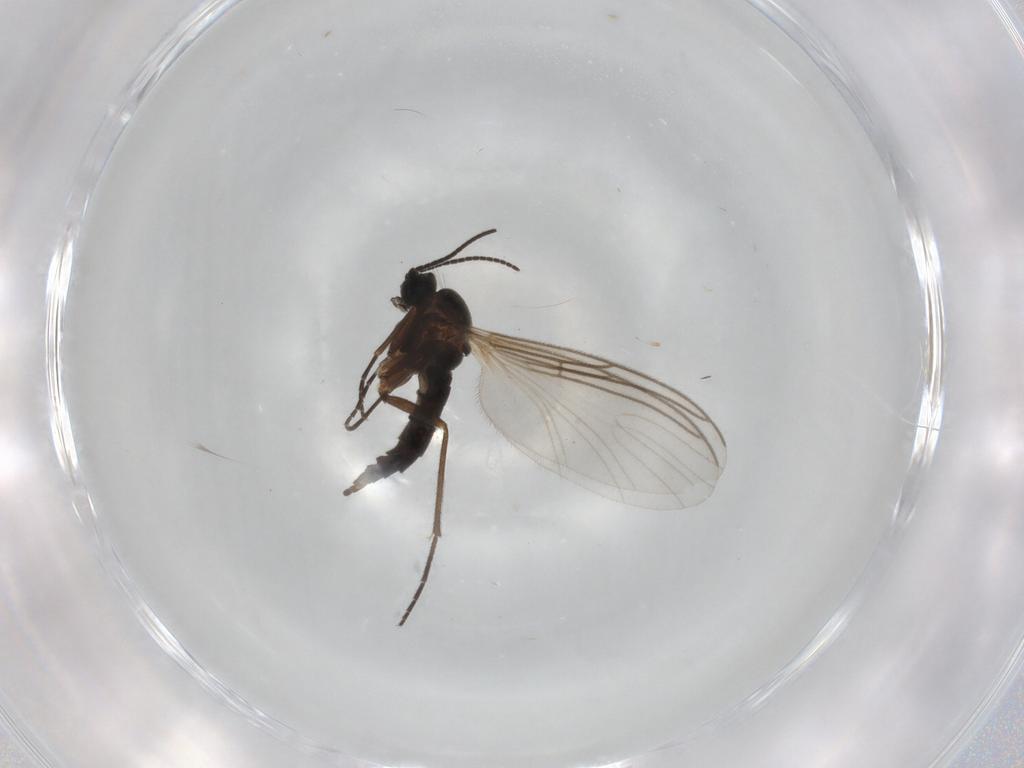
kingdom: Animalia
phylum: Arthropoda
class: Insecta
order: Diptera
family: Sciaridae
